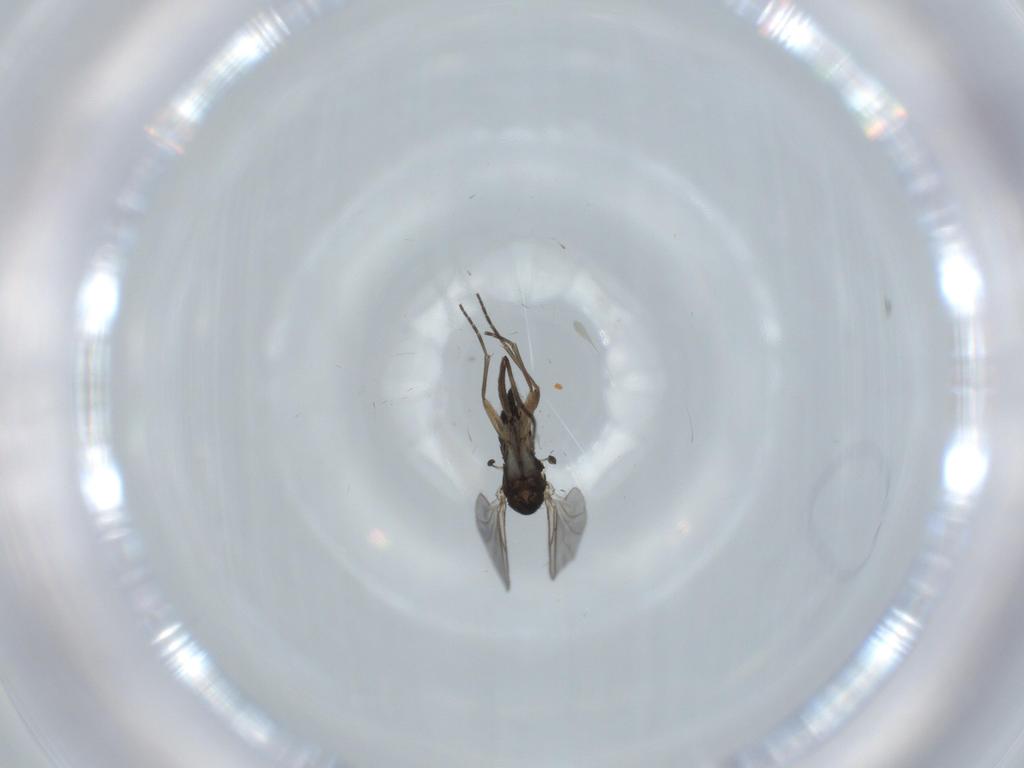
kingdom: Animalia
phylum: Arthropoda
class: Insecta
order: Diptera
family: Sciaridae
